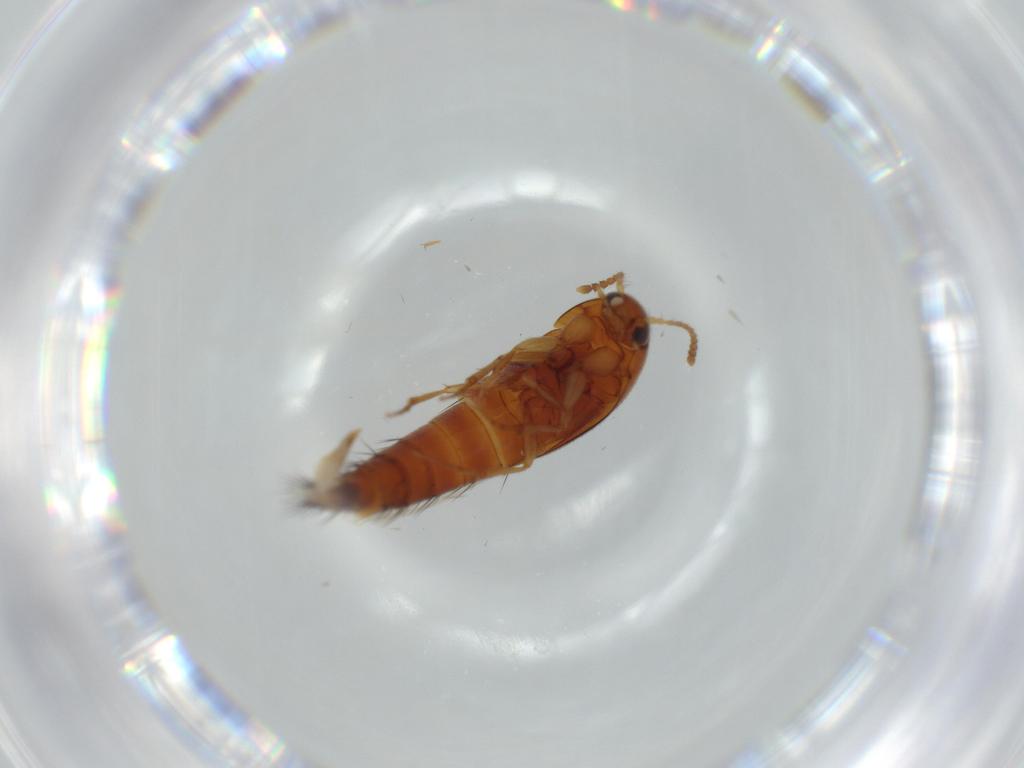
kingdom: Animalia
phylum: Arthropoda
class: Insecta
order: Coleoptera
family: Staphylinidae
